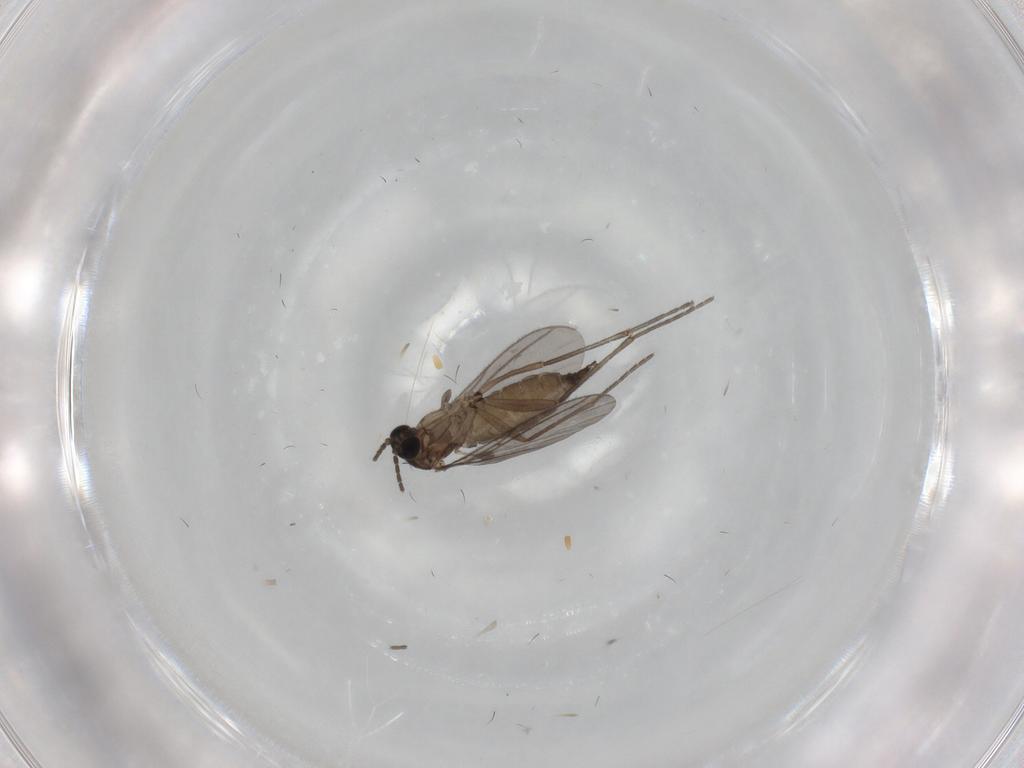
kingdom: Animalia
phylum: Arthropoda
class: Insecta
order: Diptera
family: Sciaridae
